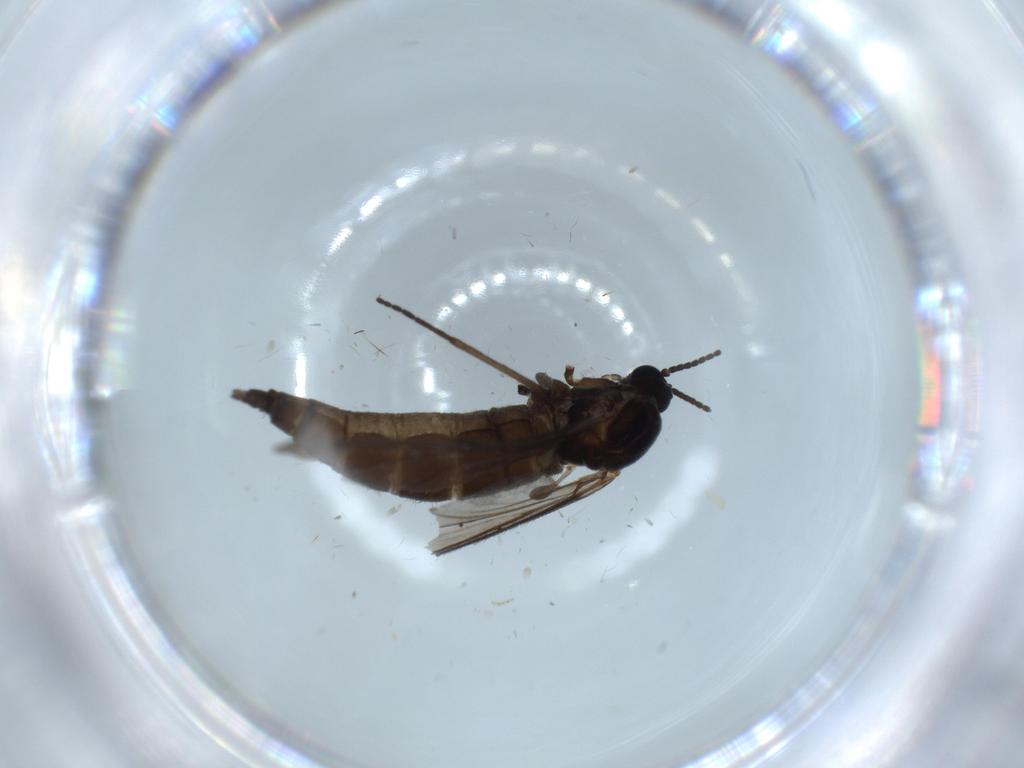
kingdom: Animalia
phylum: Arthropoda
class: Insecta
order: Diptera
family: Sciaridae
